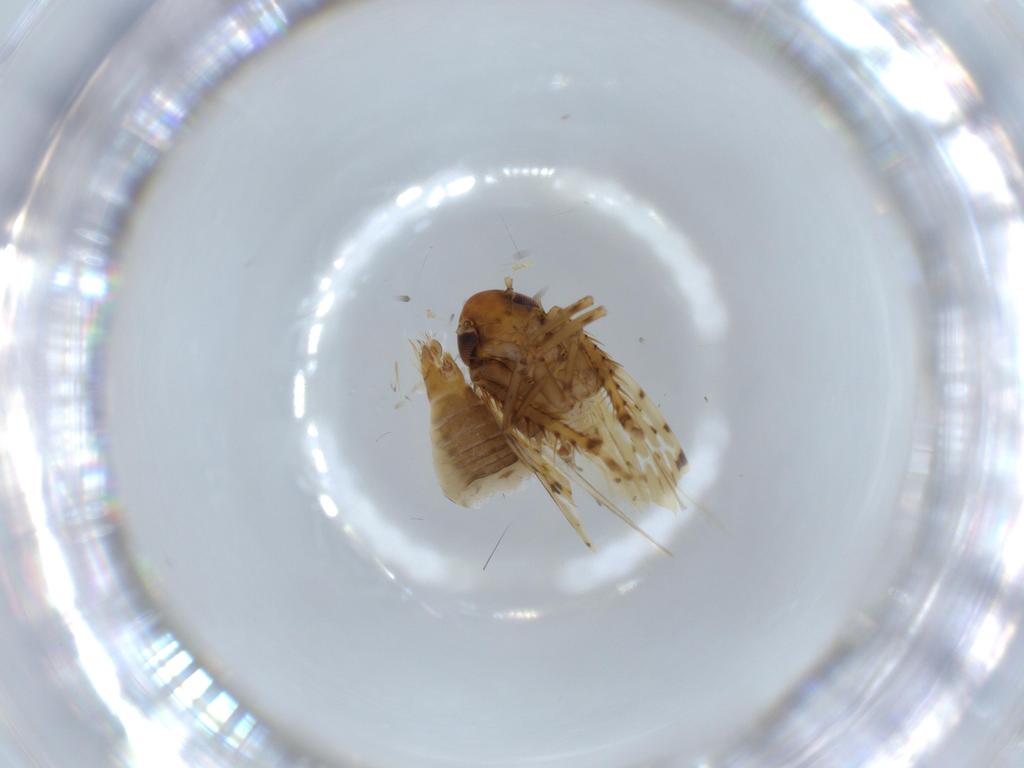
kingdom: Animalia
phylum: Arthropoda
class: Insecta
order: Hemiptera
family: Cicadellidae
